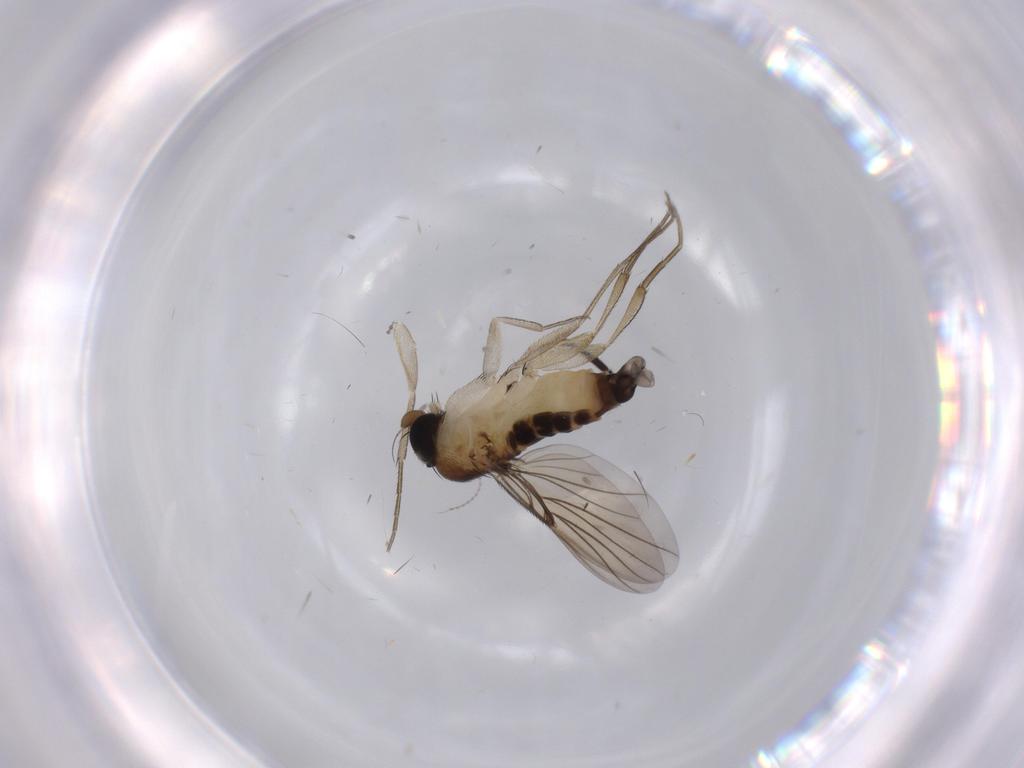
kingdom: Animalia
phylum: Arthropoda
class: Insecta
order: Diptera
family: Phoridae
